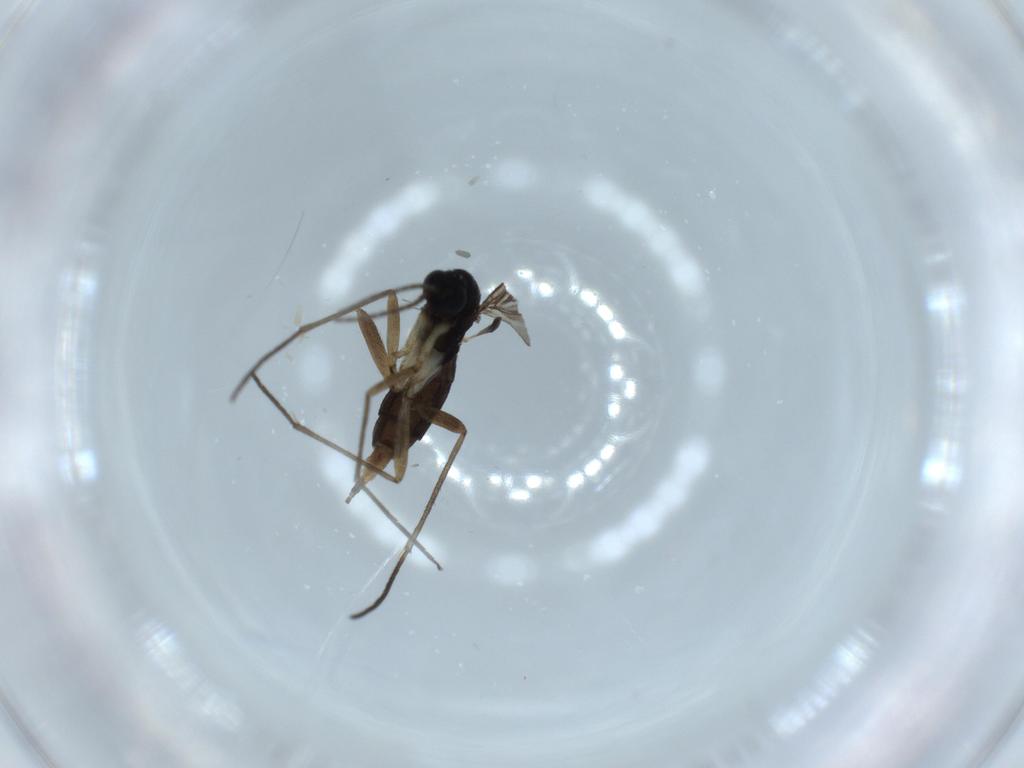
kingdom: Animalia
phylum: Arthropoda
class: Insecta
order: Diptera
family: Sciaridae
